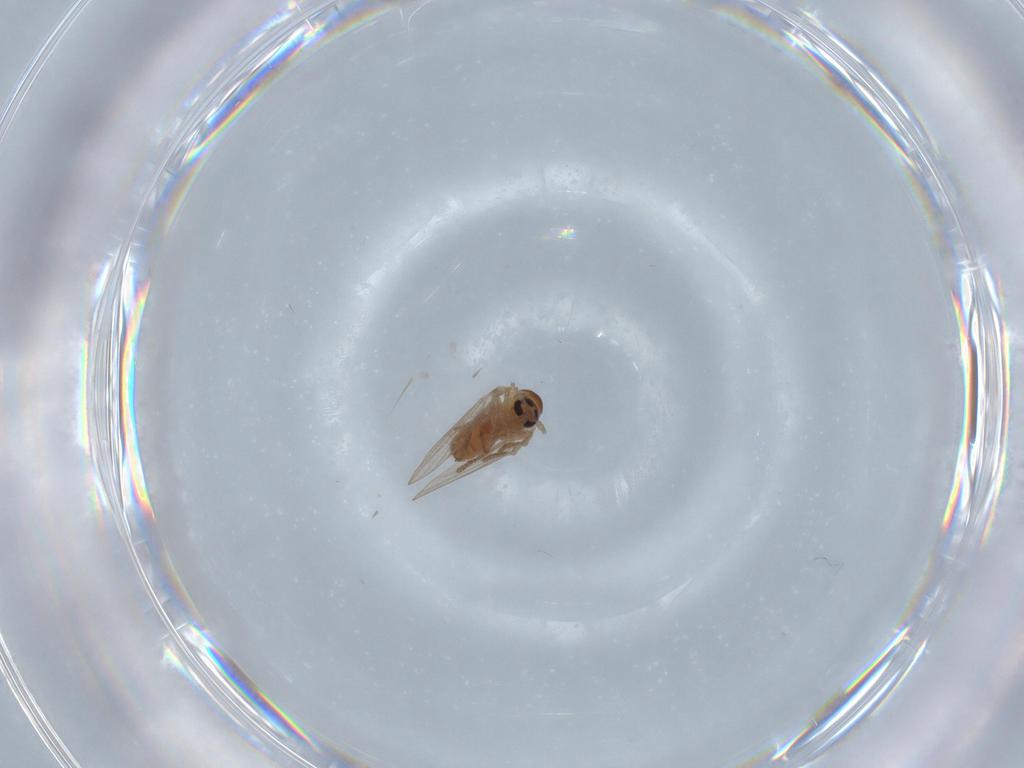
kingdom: Animalia
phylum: Arthropoda
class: Insecta
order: Diptera
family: Psychodidae
